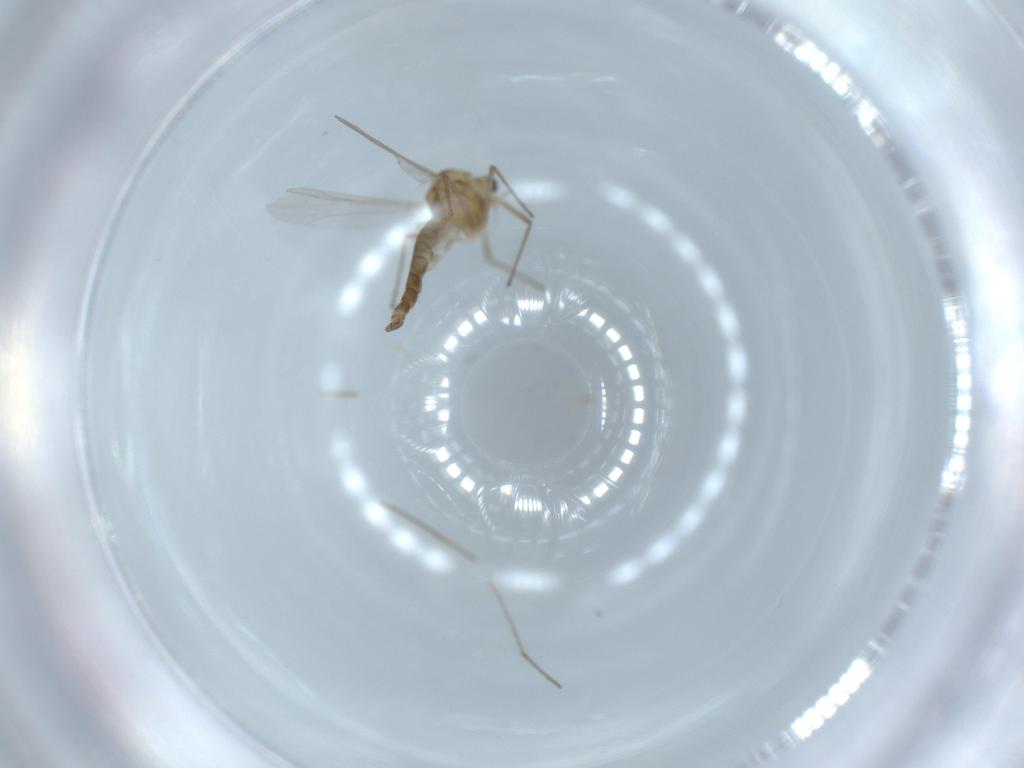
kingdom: Animalia
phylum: Arthropoda
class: Insecta
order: Diptera
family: Chironomidae
